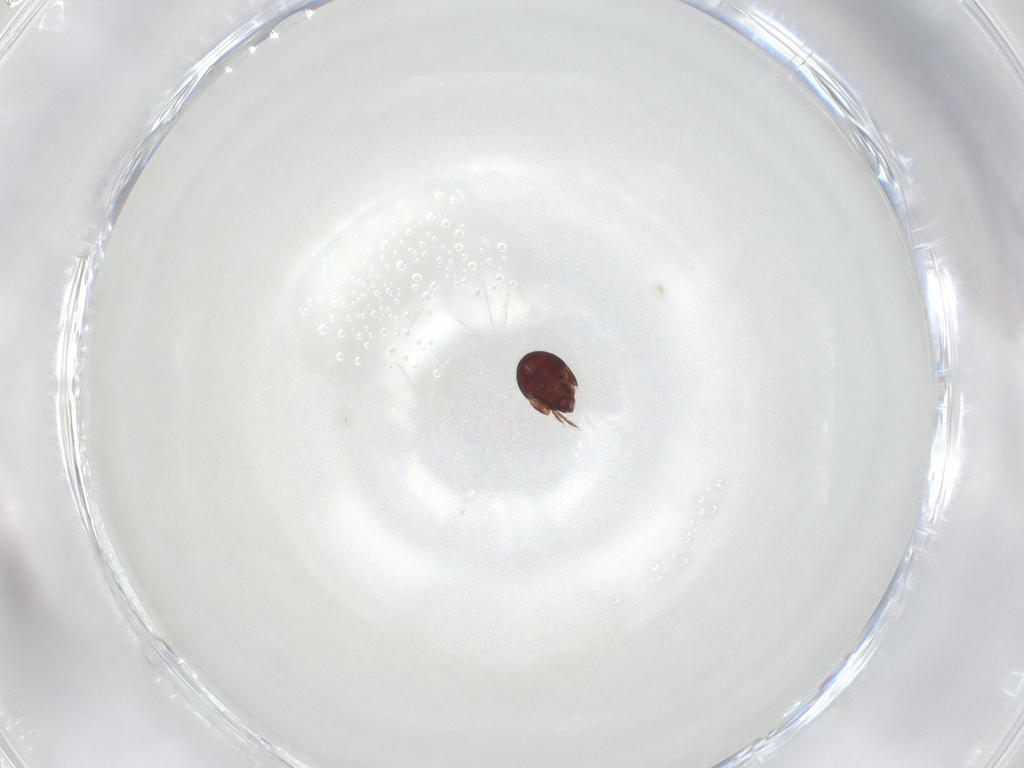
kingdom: Animalia
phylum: Arthropoda
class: Arachnida
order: Sarcoptiformes
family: Humerobatidae
